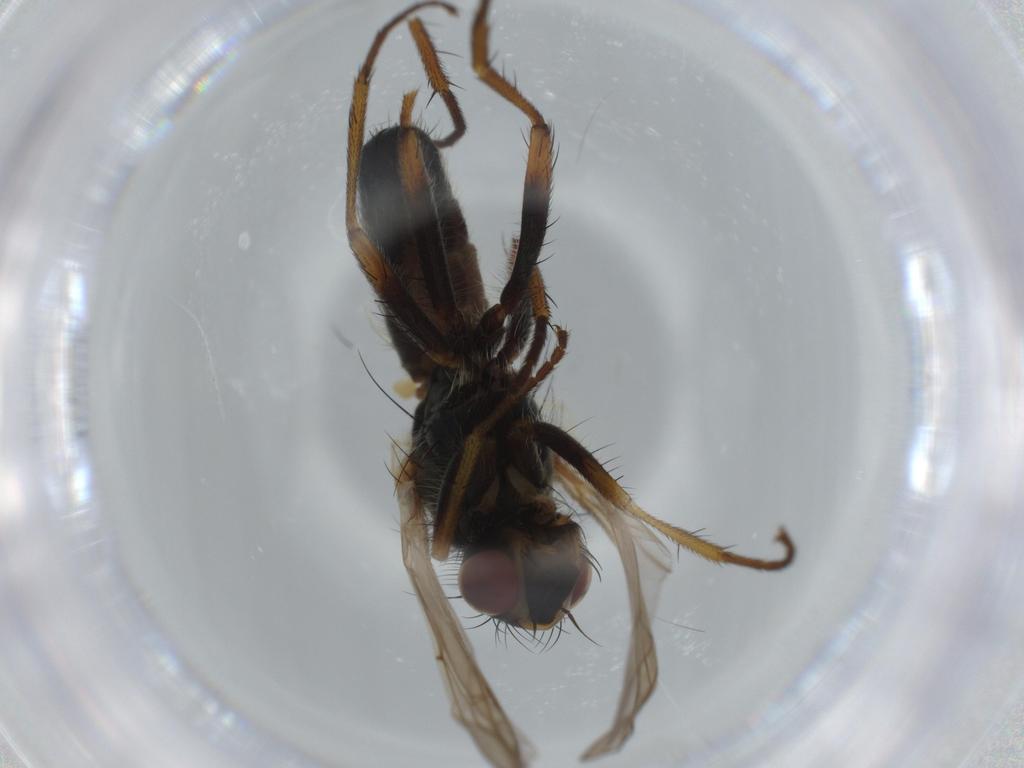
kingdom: Animalia
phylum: Arthropoda
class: Insecta
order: Diptera
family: Scathophagidae
